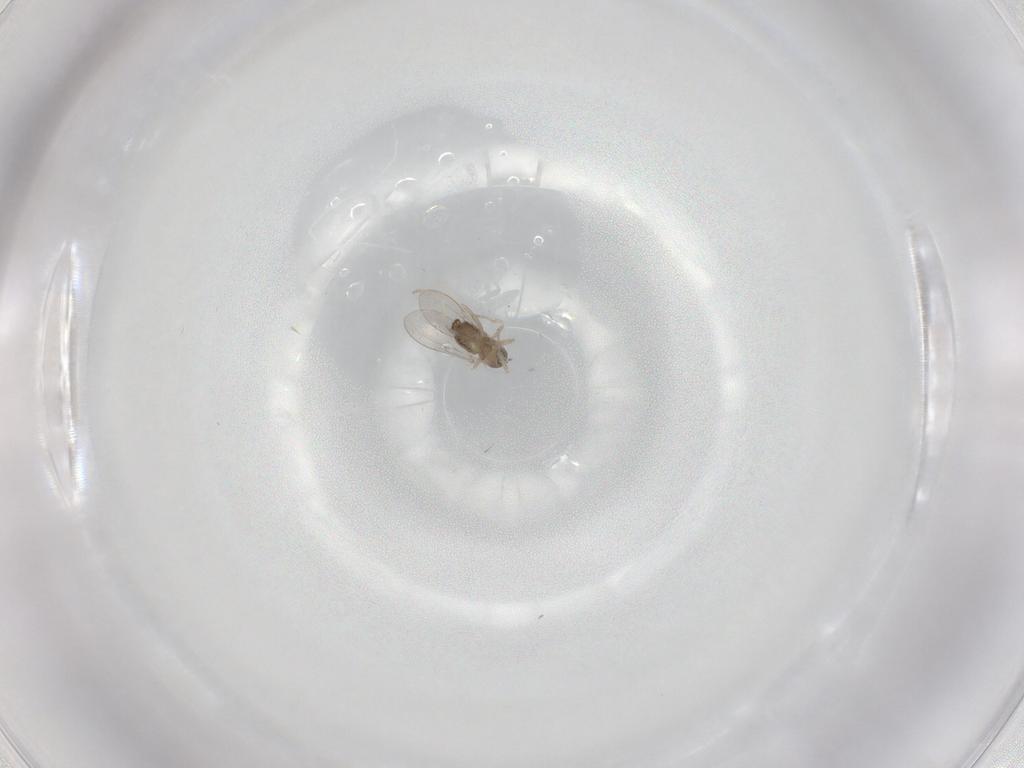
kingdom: Animalia
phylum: Arthropoda
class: Insecta
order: Diptera
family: Cecidomyiidae
